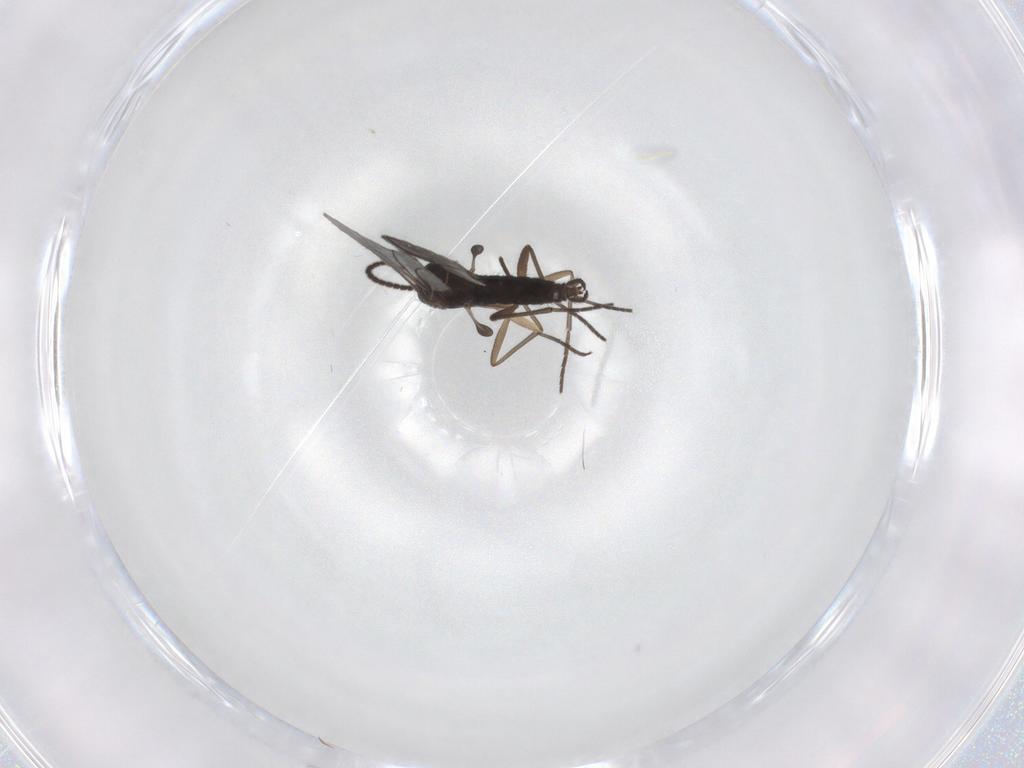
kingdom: Animalia
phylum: Arthropoda
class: Insecta
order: Diptera
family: Sciaridae
